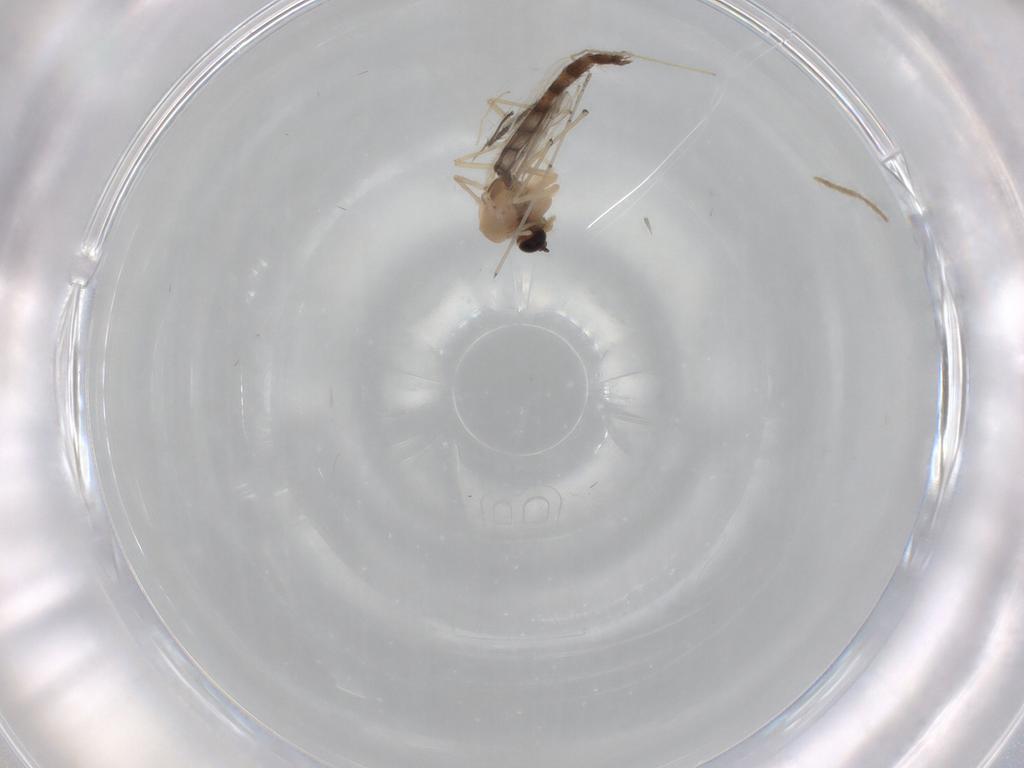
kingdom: Animalia
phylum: Arthropoda
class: Insecta
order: Diptera
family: Chironomidae
